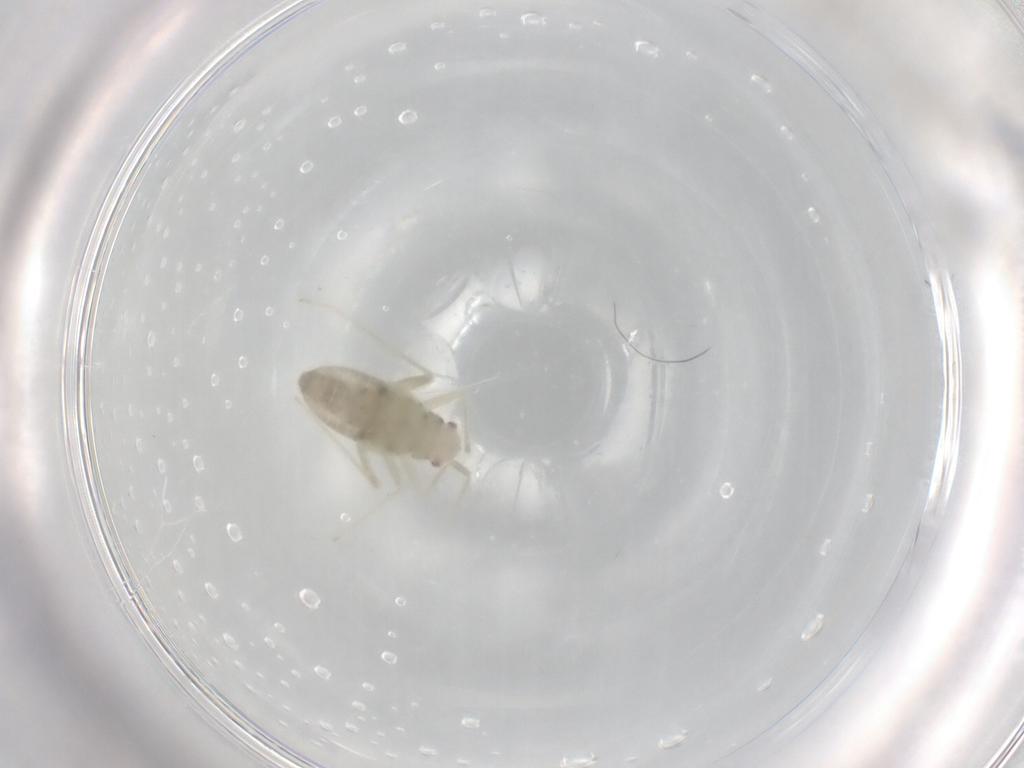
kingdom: Animalia
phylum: Arthropoda
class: Insecta
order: Hemiptera
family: Miridae
